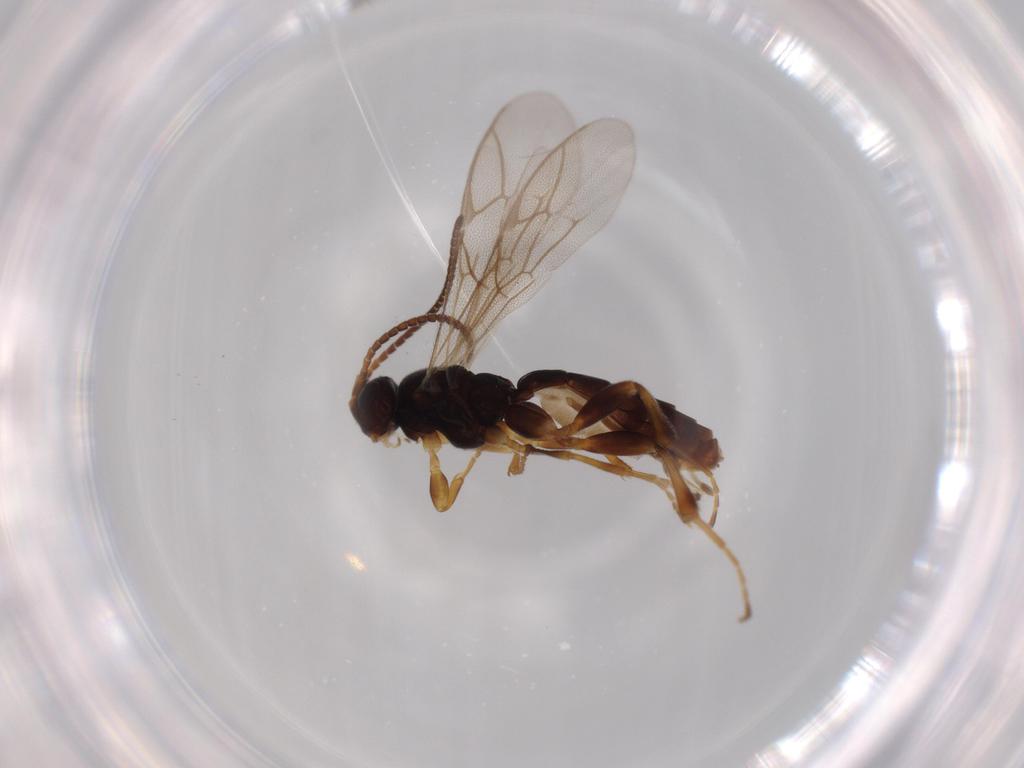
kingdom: Animalia
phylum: Arthropoda
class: Insecta
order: Hymenoptera
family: Ichneumonidae
